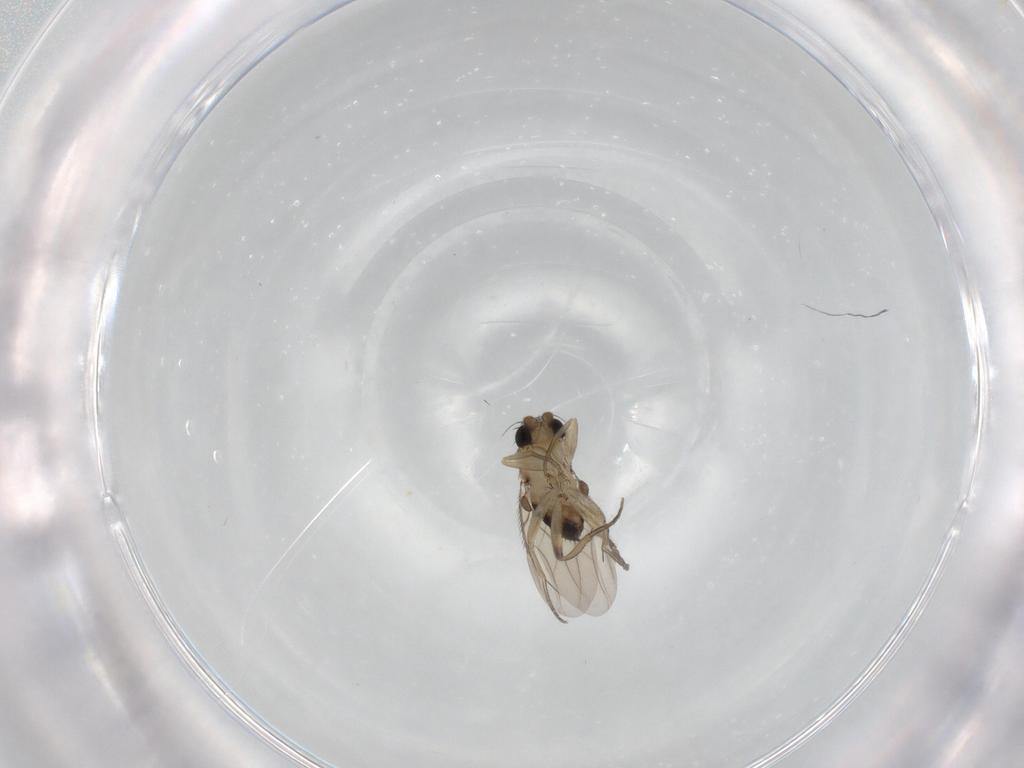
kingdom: Animalia
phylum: Arthropoda
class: Insecta
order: Diptera
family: Phoridae
